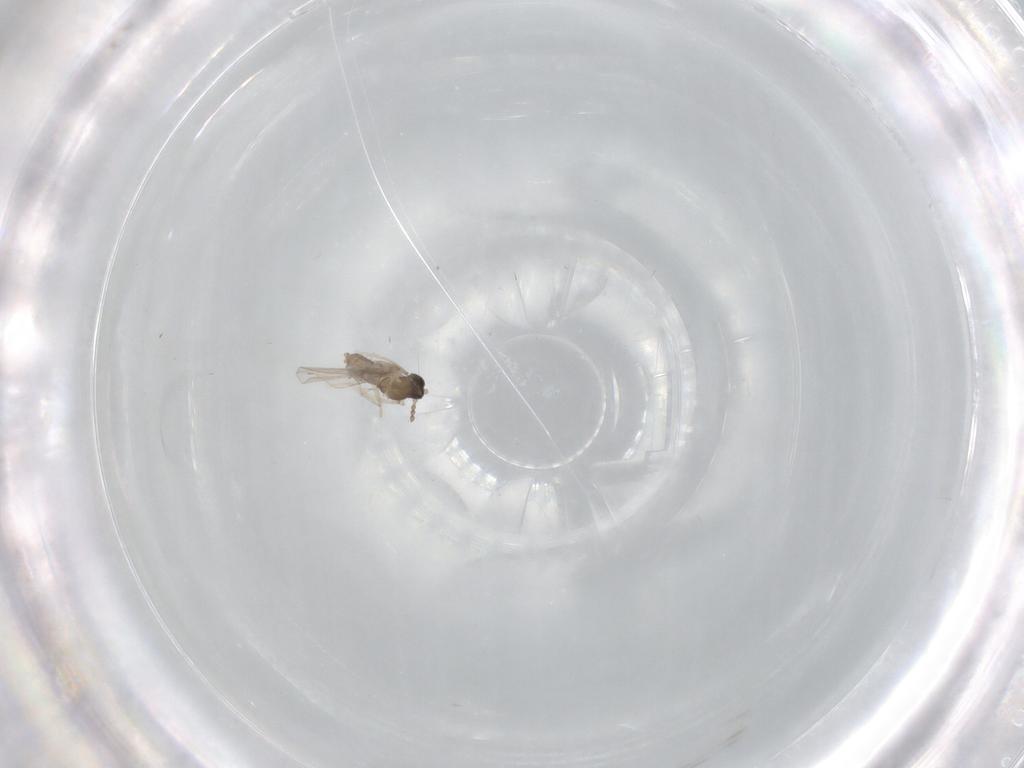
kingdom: Animalia
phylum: Arthropoda
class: Insecta
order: Diptera
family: Cecidomyiidae
